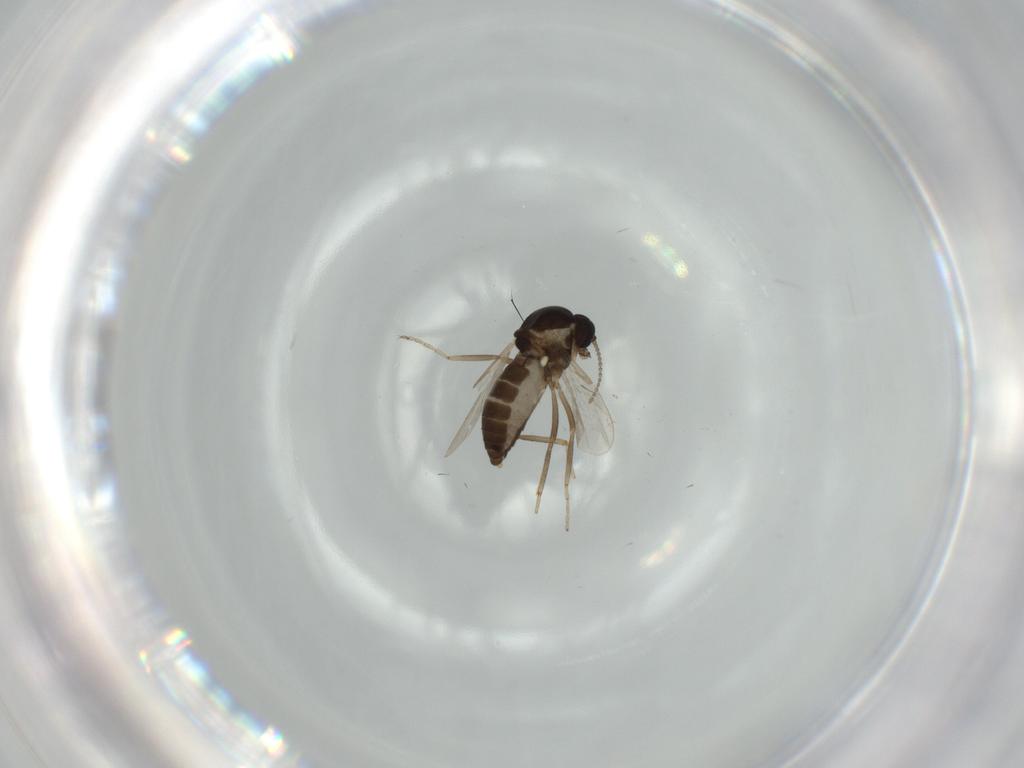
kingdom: Animalia
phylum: Arthropoda
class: Insecta
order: Diptera
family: Ceratopogonidae
